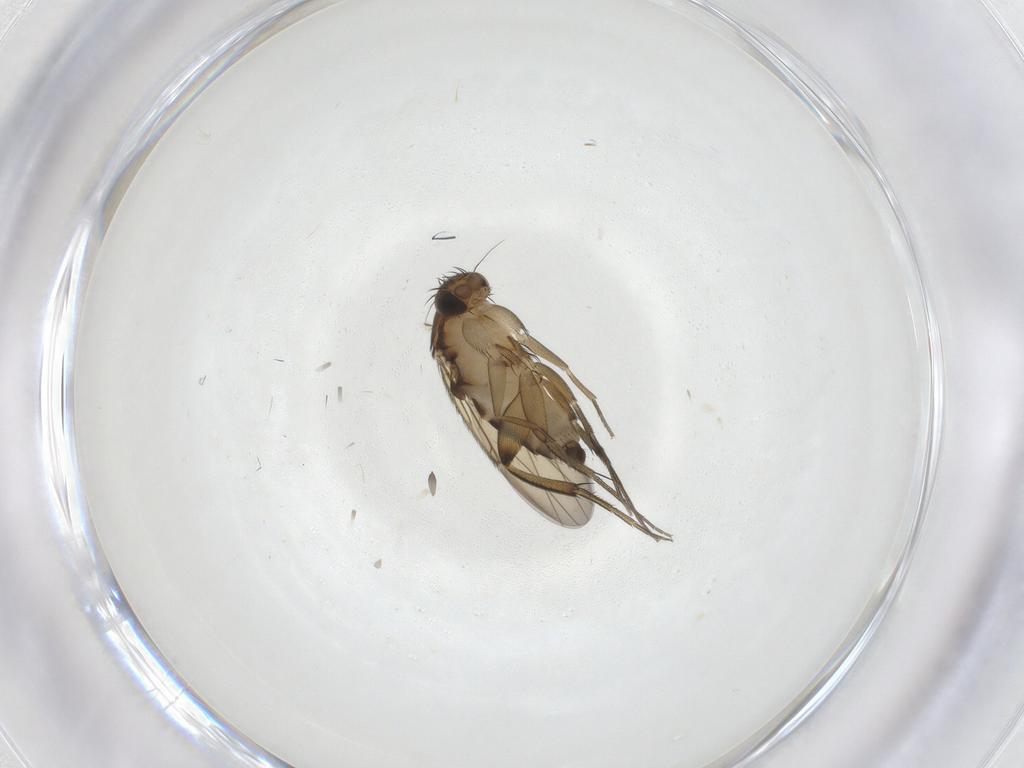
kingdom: Animalia
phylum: Arthropoda
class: Insecta
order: Diptera
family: Phoridae
